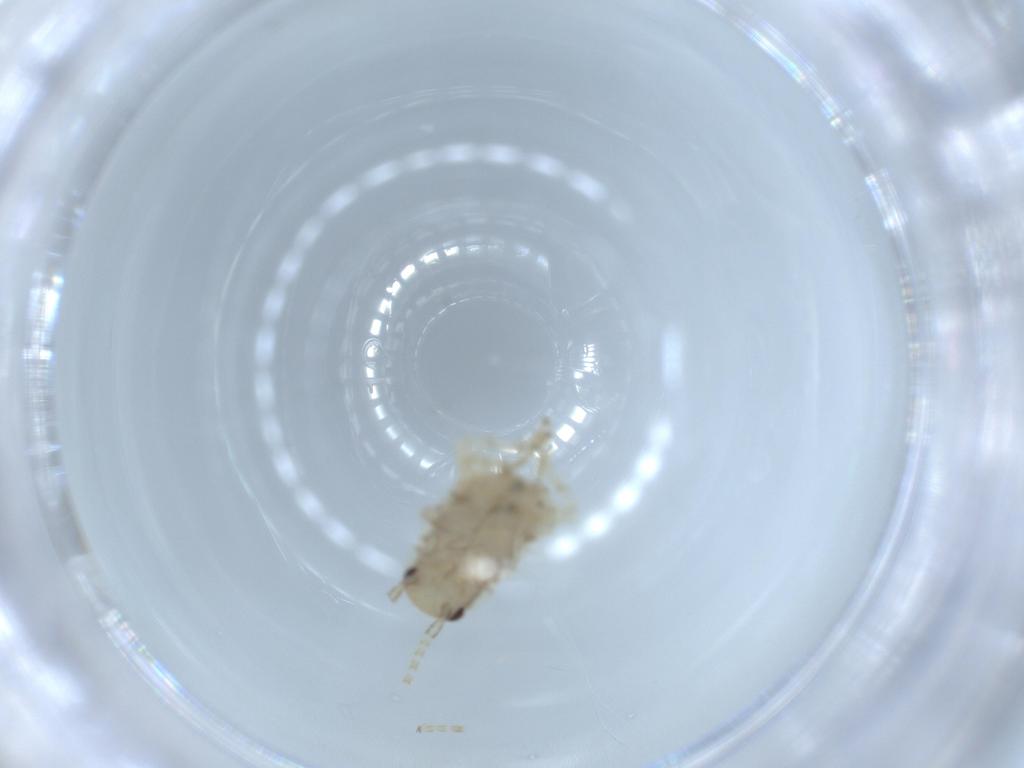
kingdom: Animalia
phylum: Arthropoda
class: Insecta
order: Blattodea
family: Ectobiidae
